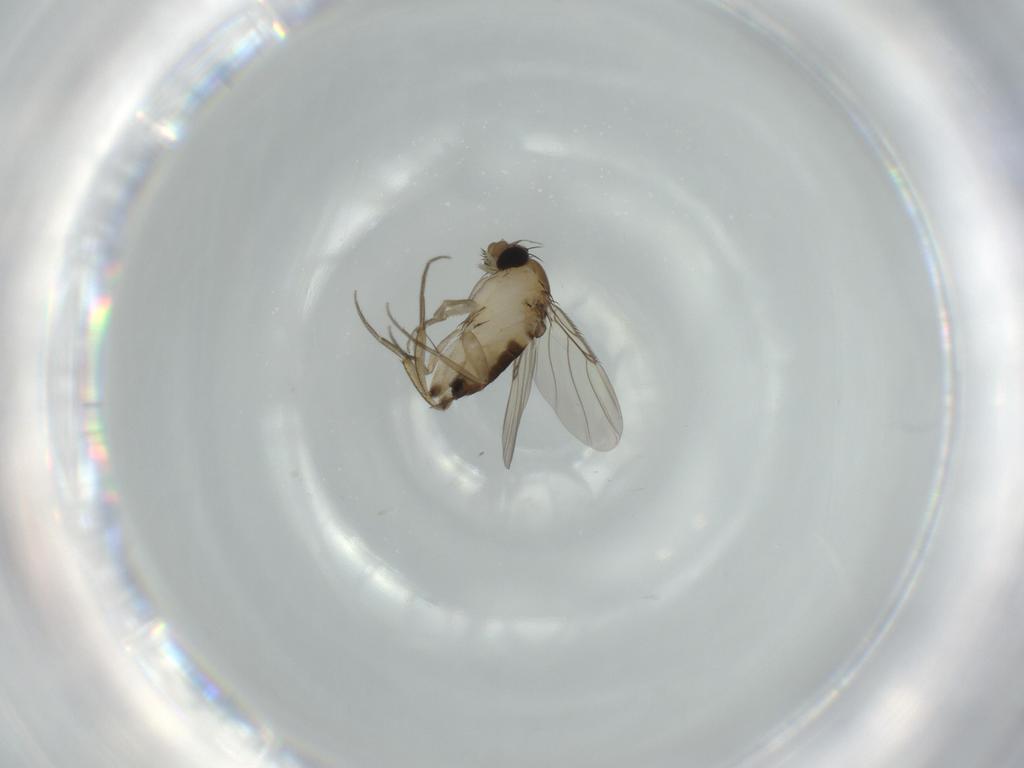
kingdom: Animalia
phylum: Arthropoda
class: Insecta
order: Diptera
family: Phoridae
